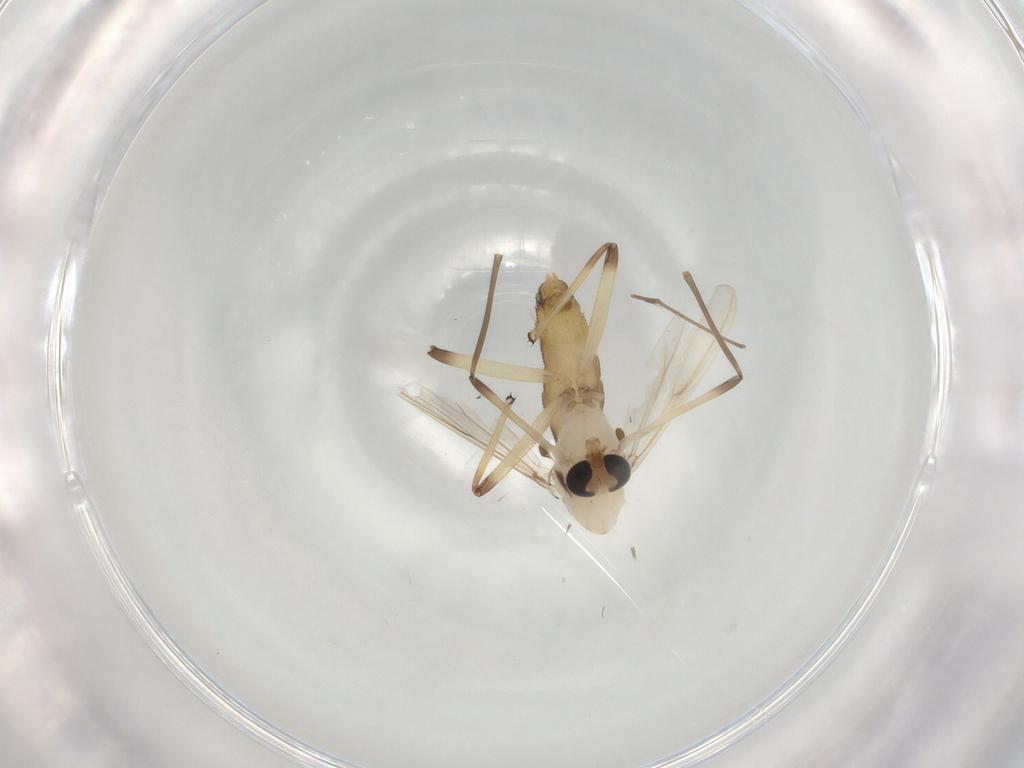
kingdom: Animalia
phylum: Arthropoda
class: Insecta
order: Diptera
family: Chironomidae
